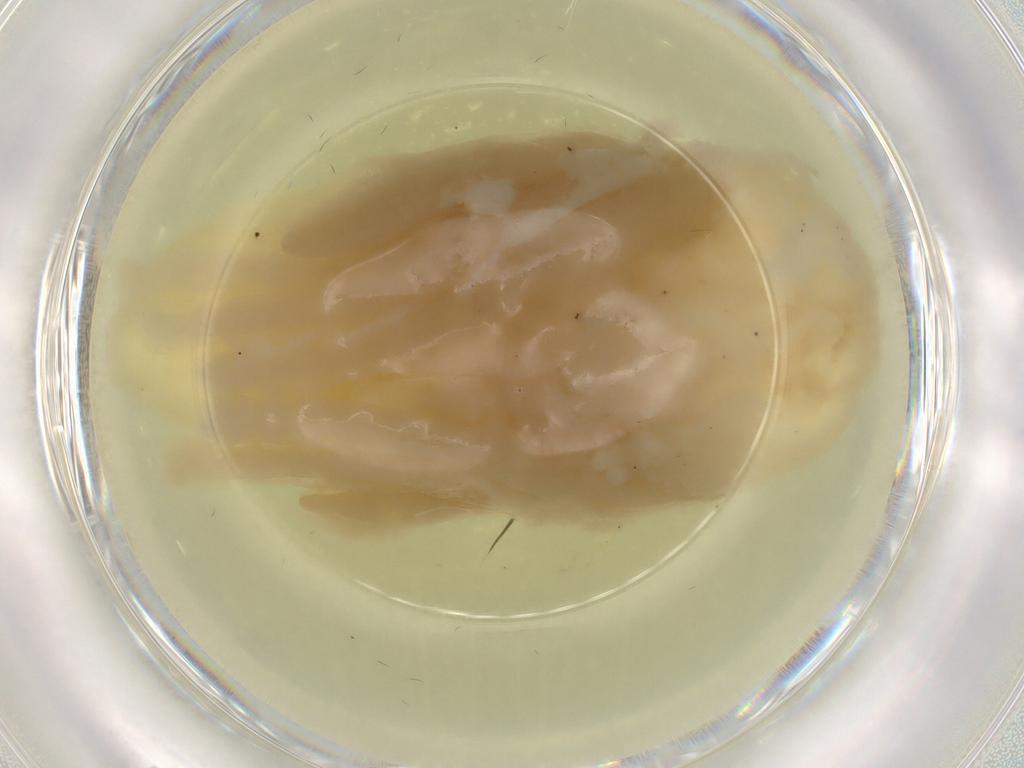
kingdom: Animalia
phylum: Arthropoda
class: Insecta
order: Diptera
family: Anthomyiidae
